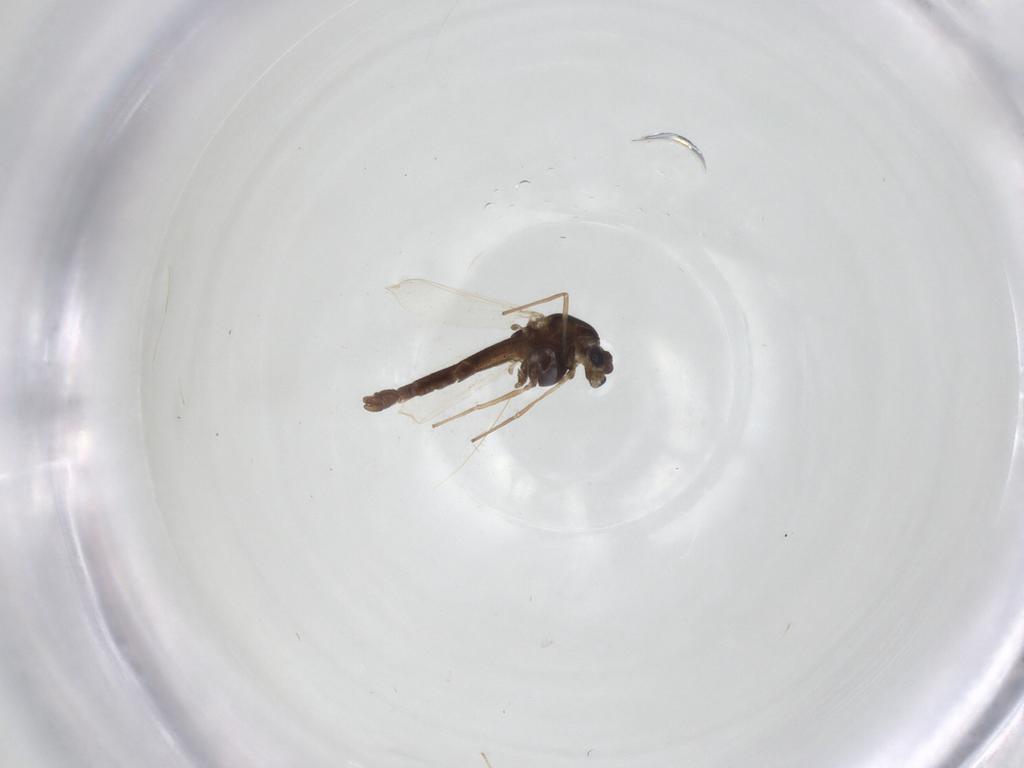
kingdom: Animalia
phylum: Arthropoda
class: Insecta
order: Diptera
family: Chironomidae
